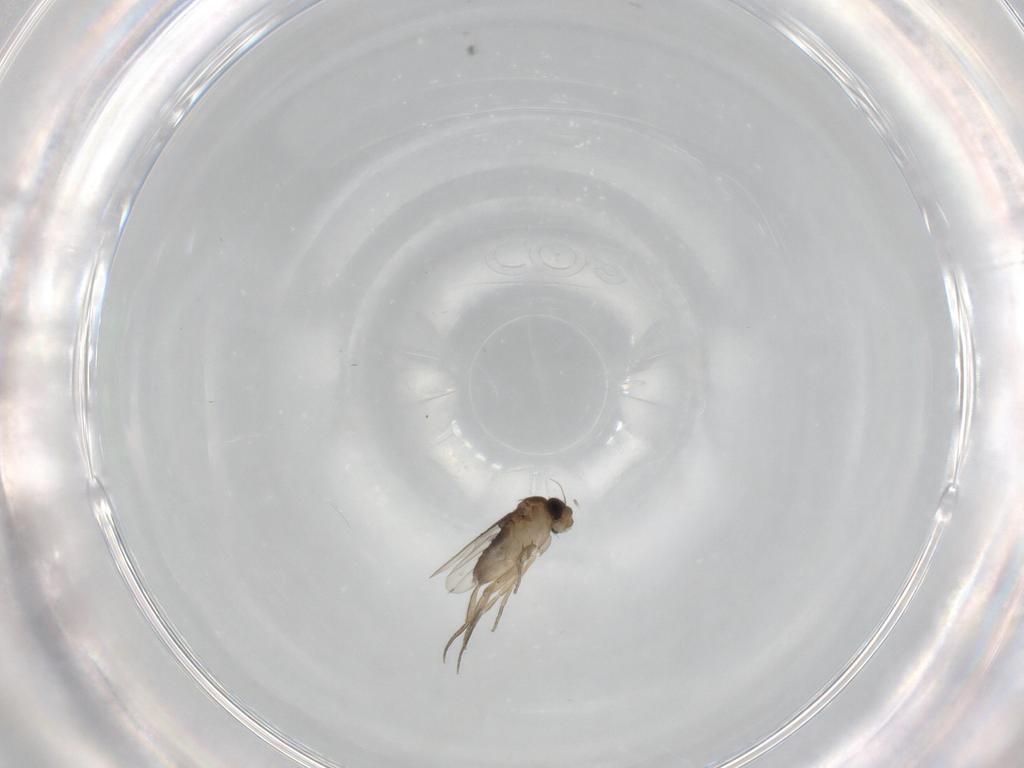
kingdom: Animalia
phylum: Arthropoda
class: Insecta
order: Diptera
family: Phoridae
